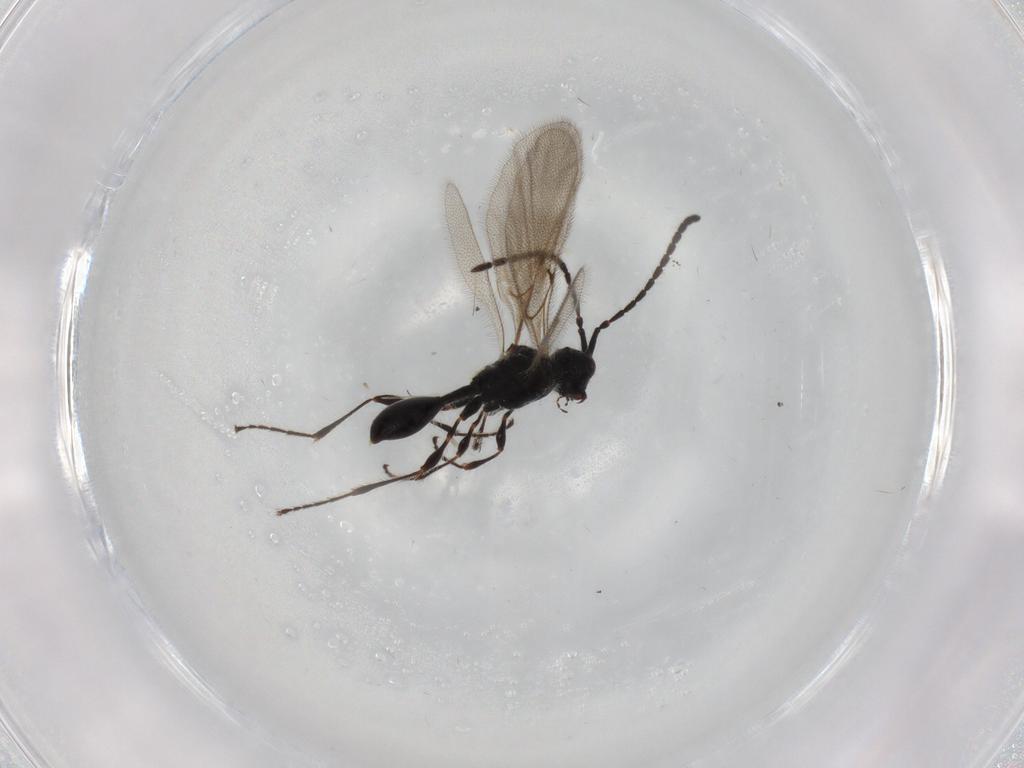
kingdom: Animalia
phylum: Arthropoda
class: Insecta
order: Hymenoptera
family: Diapriidae
